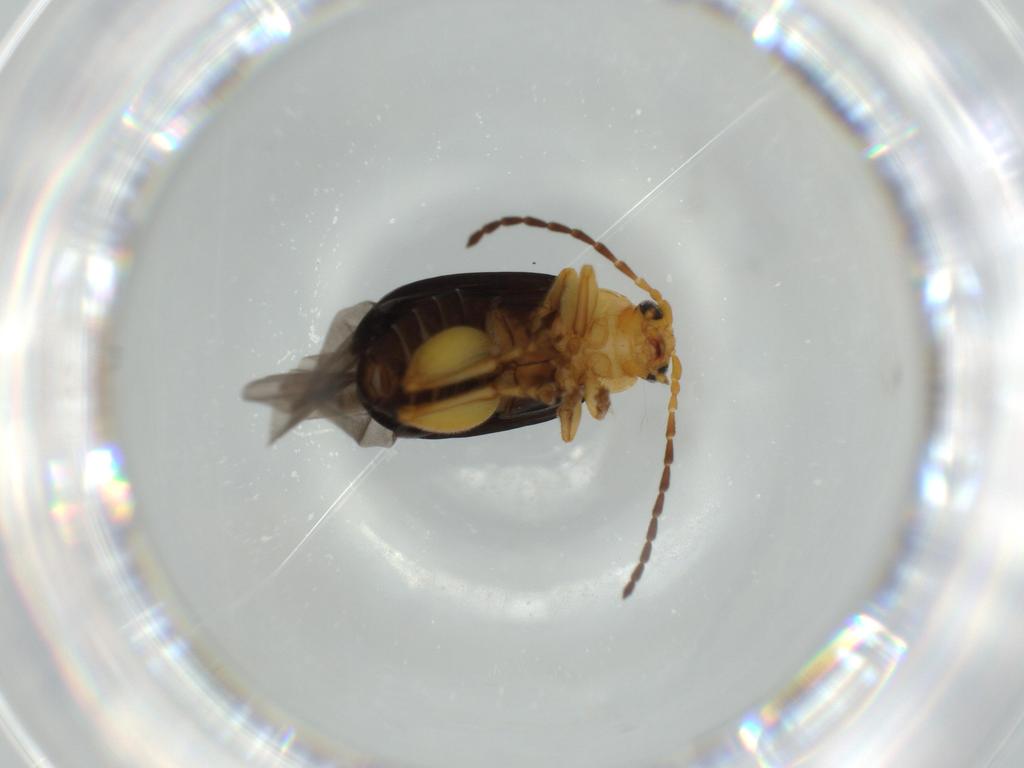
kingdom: Animalia
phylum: Arthropoda
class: Insecta
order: Coleoptera
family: Chrysomelidae
